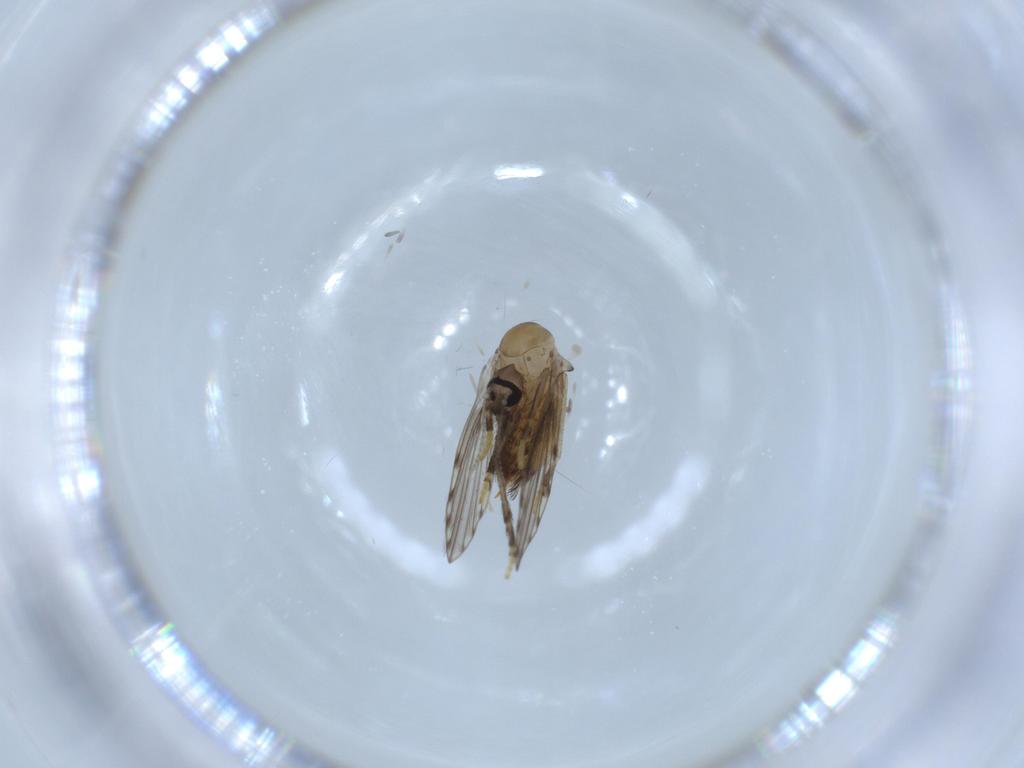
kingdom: Animalia
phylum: Arthropoda
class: Insecta
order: Diptera
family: Psychodidae
